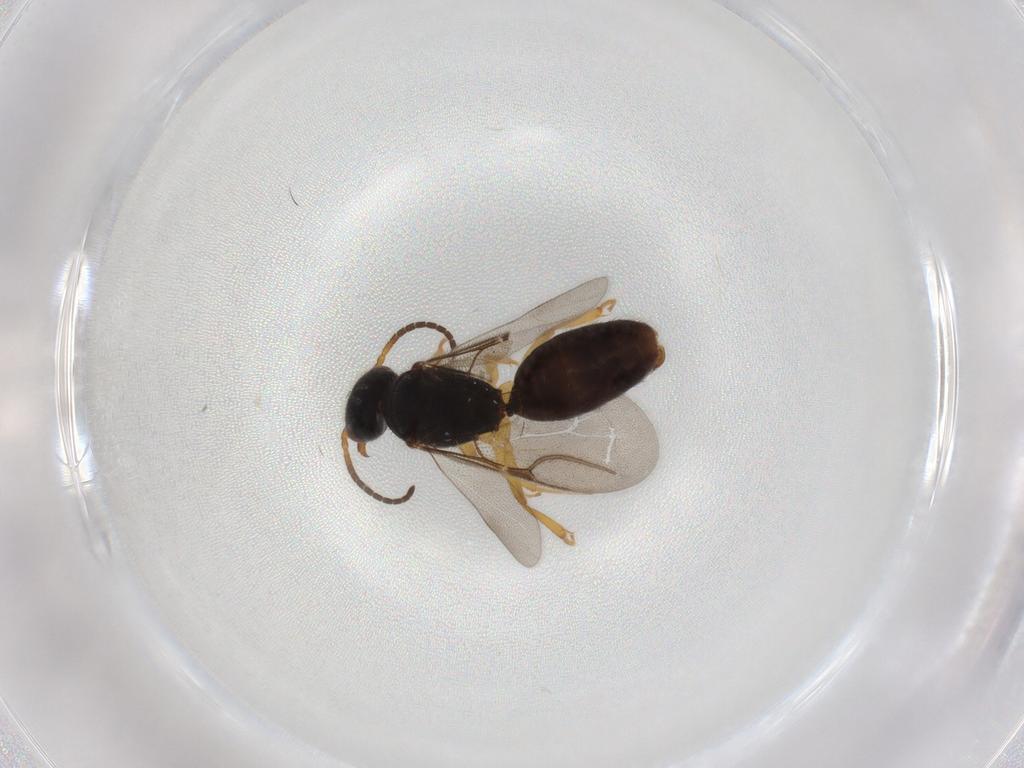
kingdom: Animalia
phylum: Arthropoda
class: Insecta
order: Hymenoptera
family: Bethylidae
